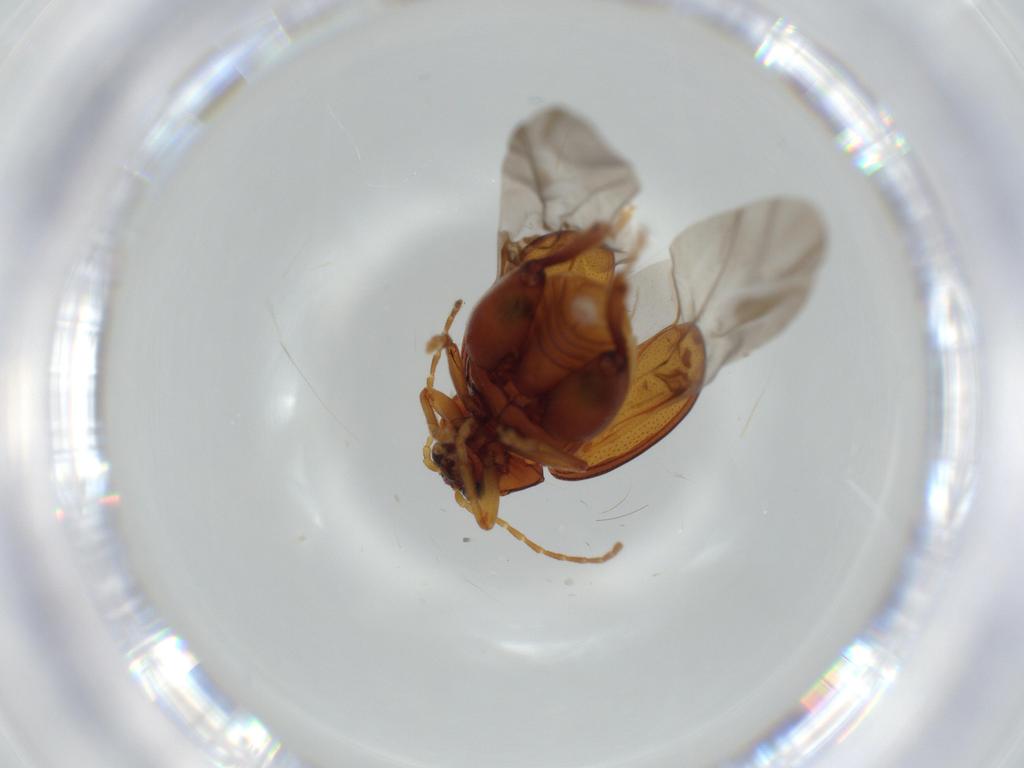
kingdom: Animalia
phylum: Arthropoda
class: Insecta
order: Coleoptera
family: Chrysomelidae
